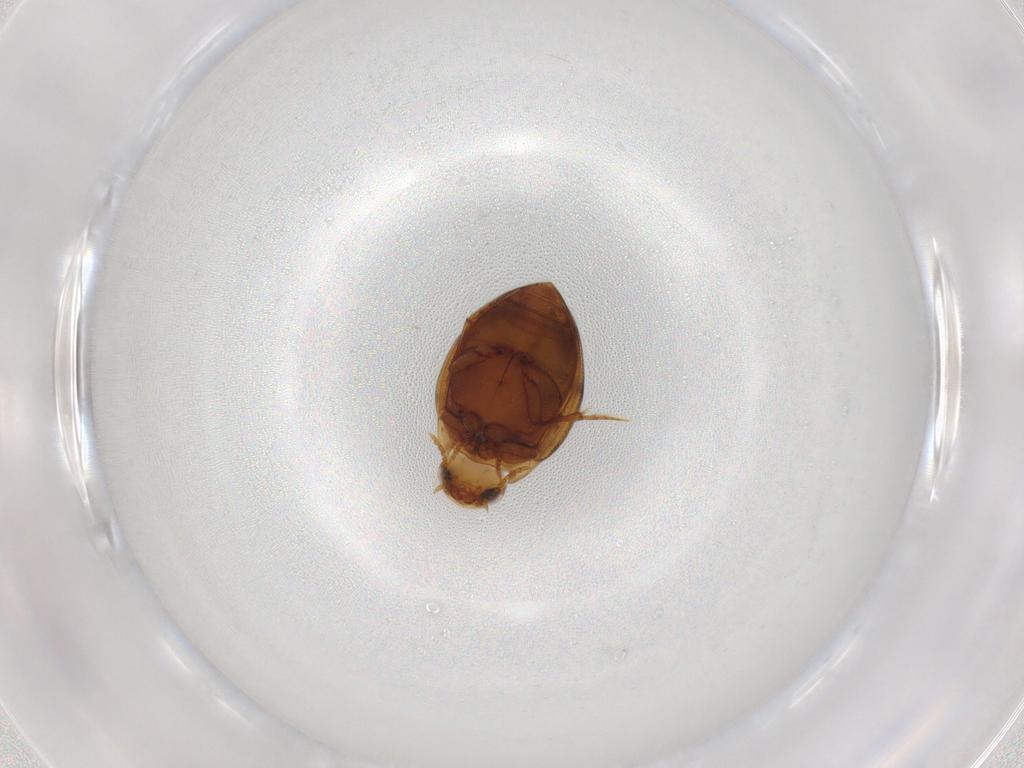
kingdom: Animalia
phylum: Arthropoda
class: Insecta
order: Coleoptera
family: Dytiscidae
